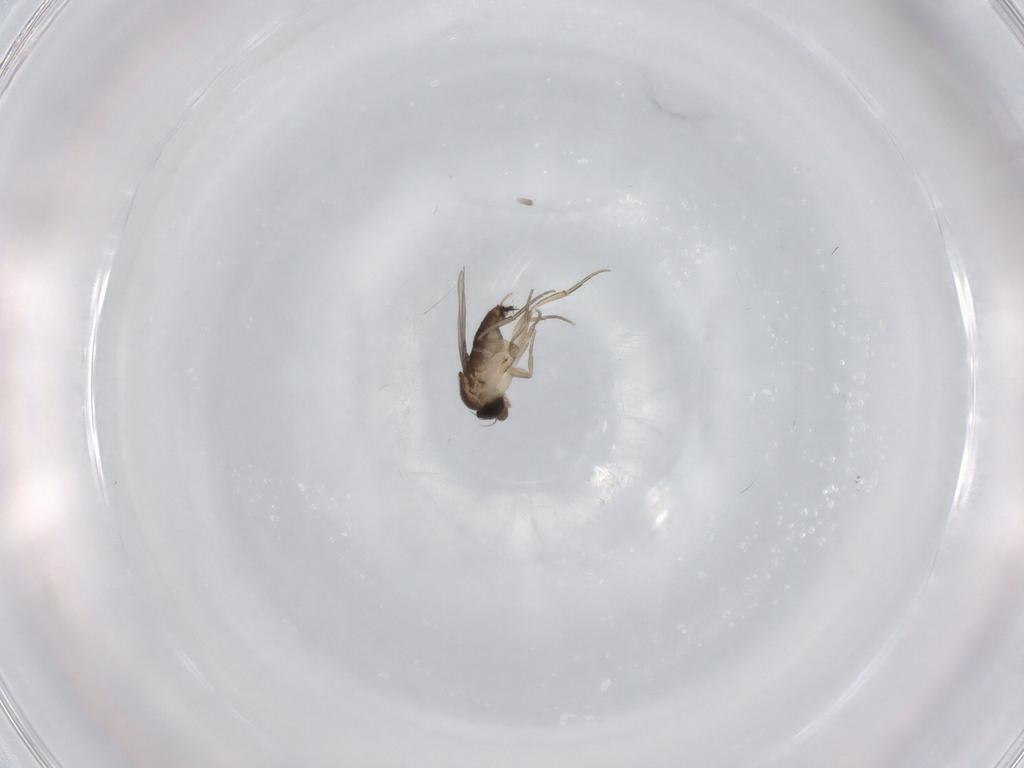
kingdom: Animalia
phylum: Arthropoda
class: Insecta
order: Diptera
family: Phoridae
